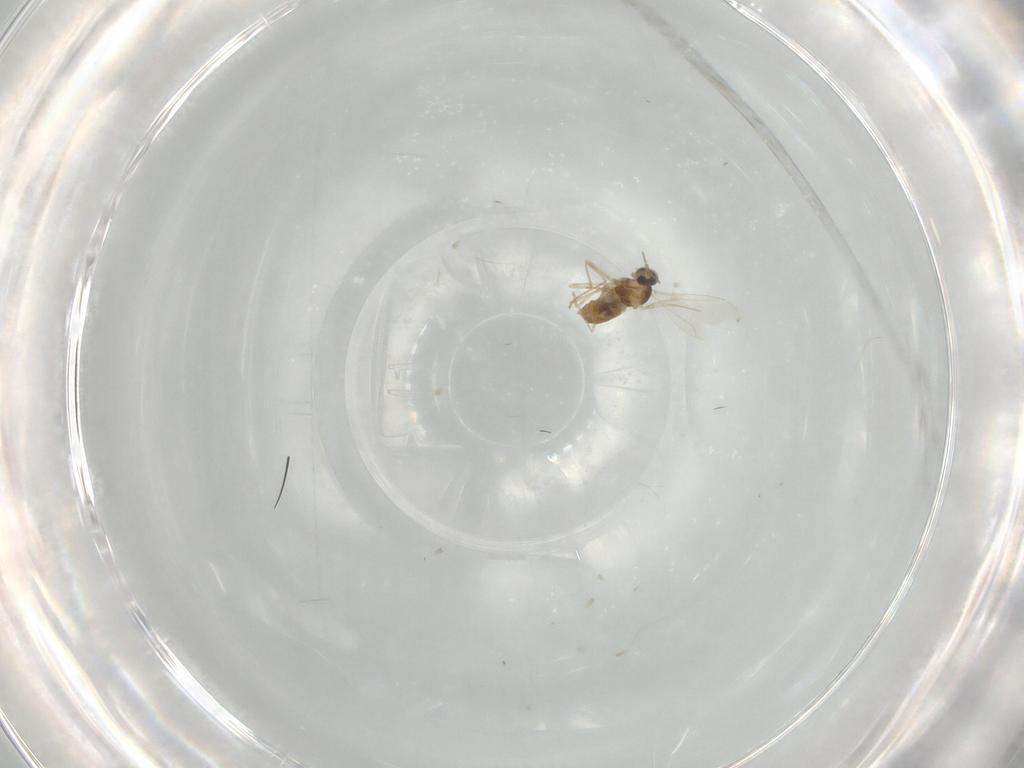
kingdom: Animalia
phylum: Arthropoda
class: Insecta
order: Diptera
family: Cecidomyiidae
